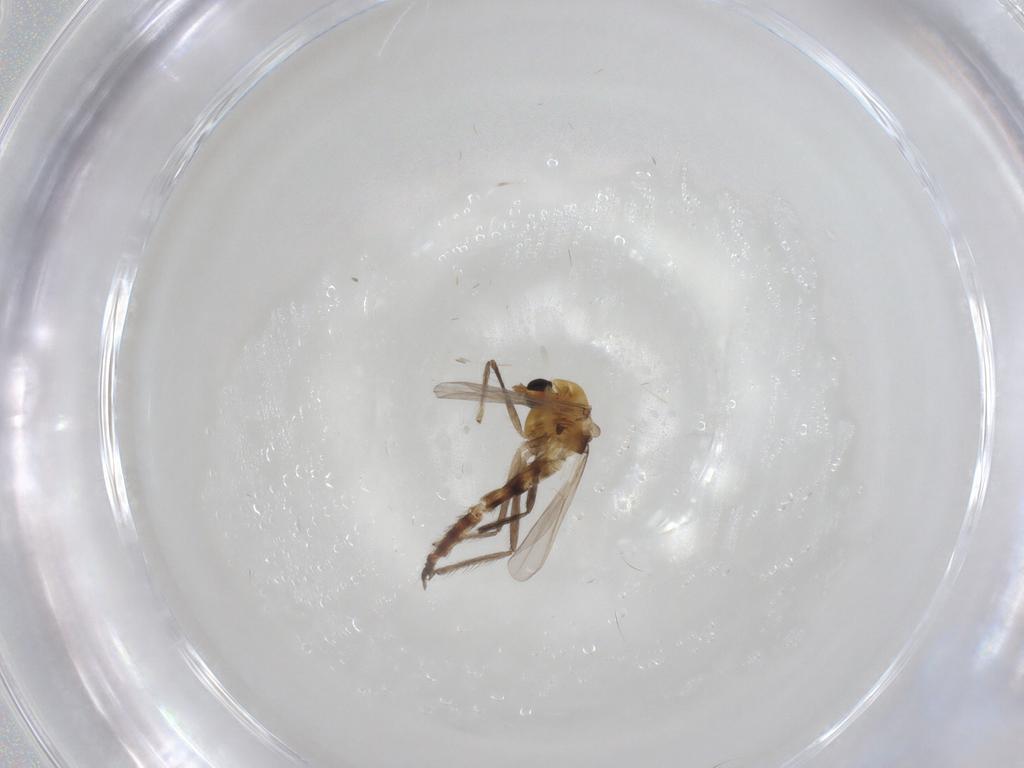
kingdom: Animalia
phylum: Arthropoda
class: Insecta
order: Diptera
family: Chironomidae
